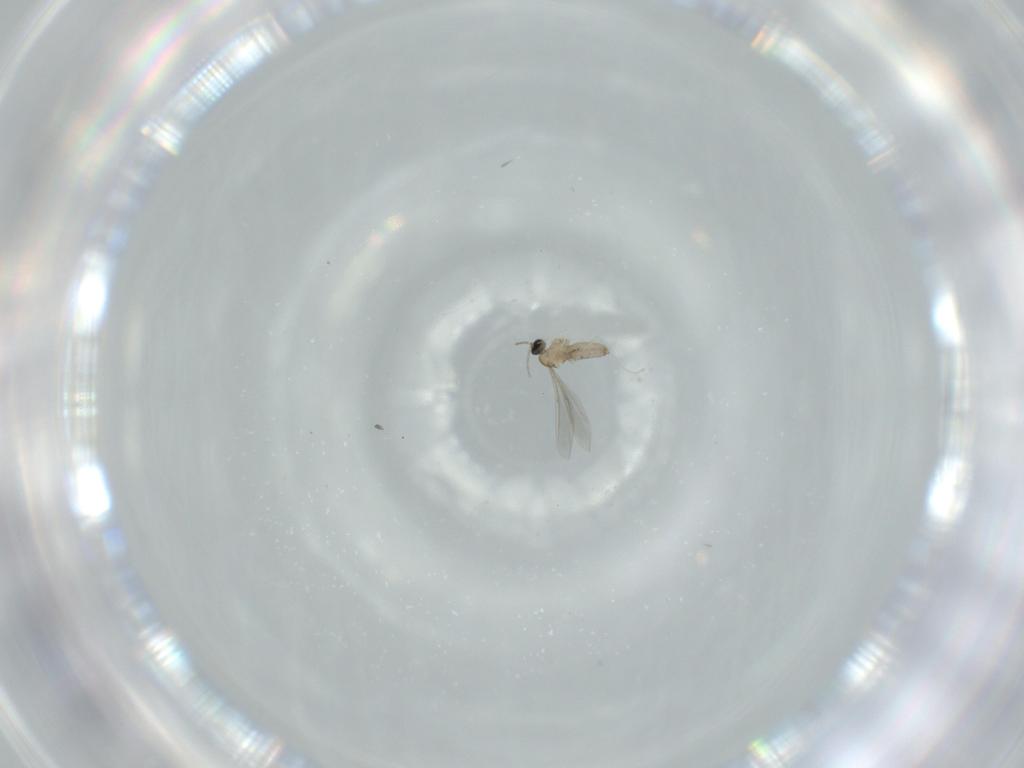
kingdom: Animalia
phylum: Arthropoda
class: Insecta
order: Diptera
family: Cecidomyiidae
